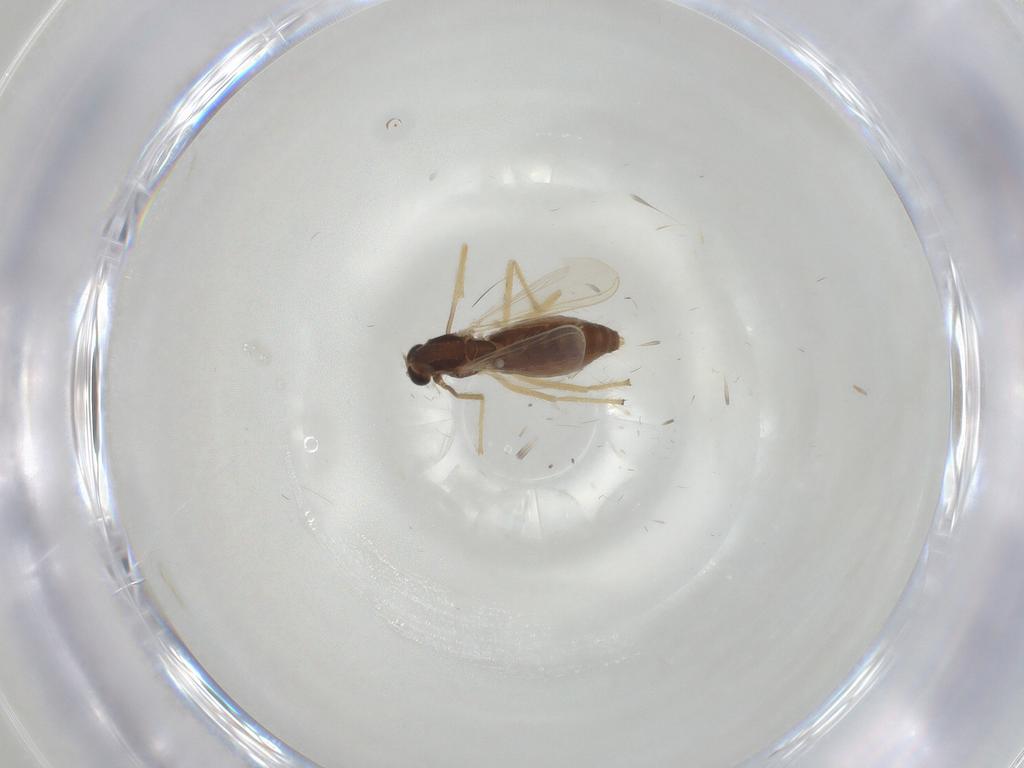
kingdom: Animalia
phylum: Arthropoda
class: Insecta
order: Diptera
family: Chironomidae
